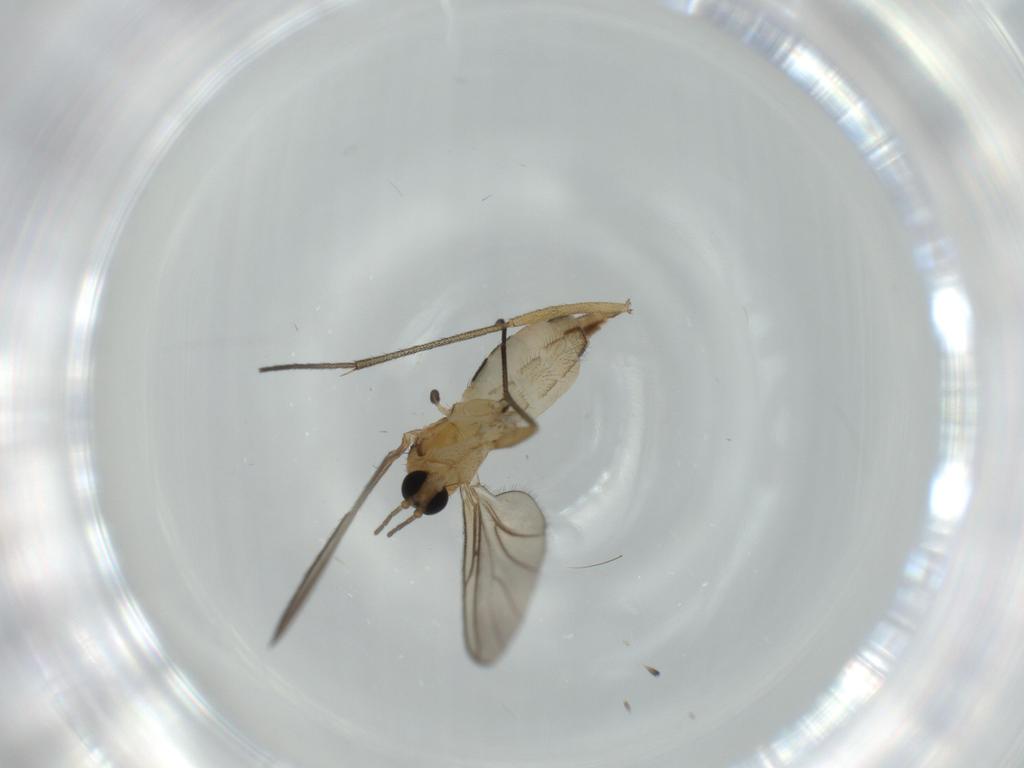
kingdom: Animalia
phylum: Arthropoda
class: Insecta
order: Diptera
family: Sciaridae
